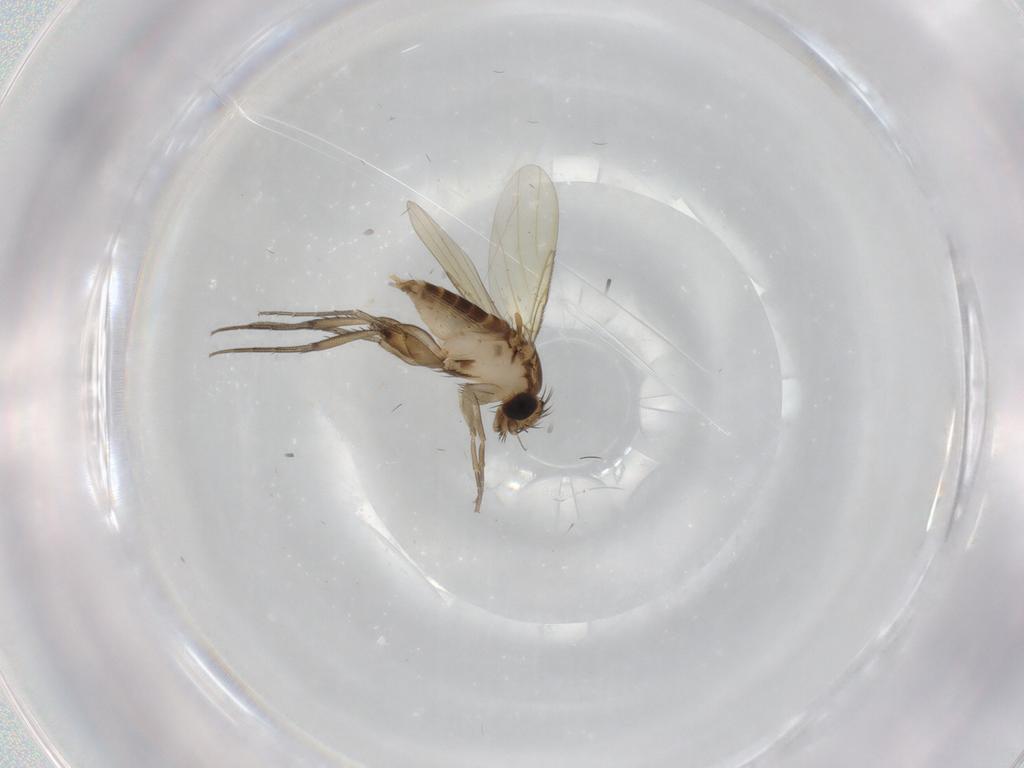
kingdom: Animalia
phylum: Arthropoda
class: Insecta
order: Diptera
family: Phoridae
